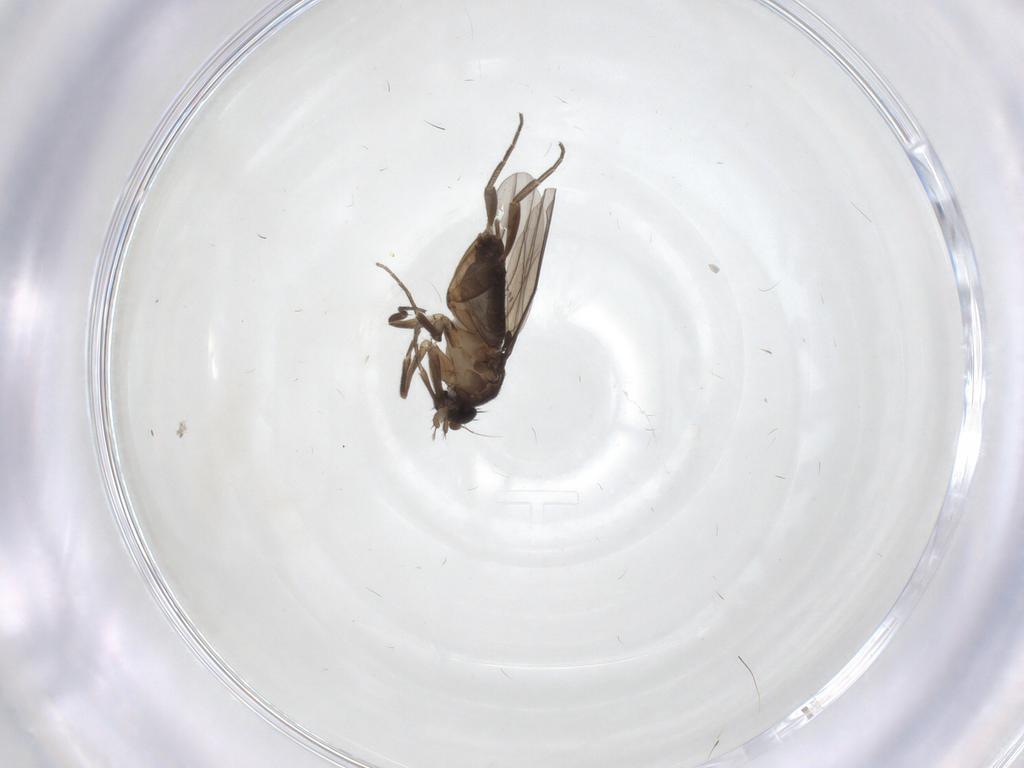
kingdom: Animalia
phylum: Arthropoda
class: Insecta
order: Diptera
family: Phoridae
